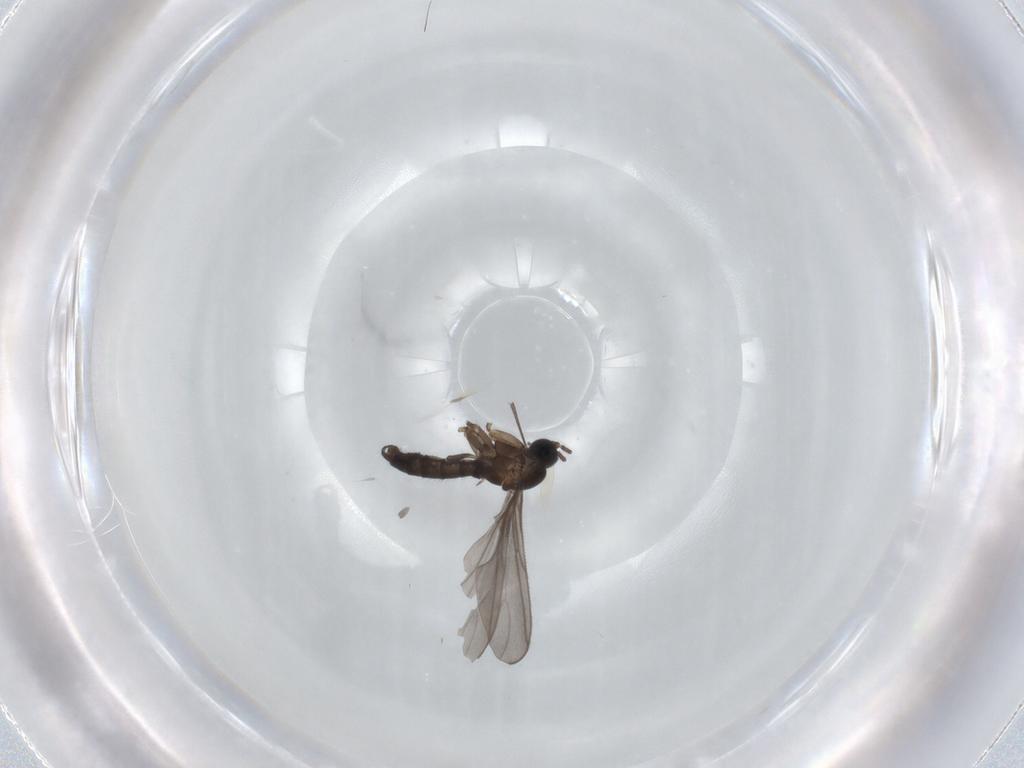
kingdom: Animalia
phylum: Arthropoda
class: Insecta
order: Diptera
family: Sciaridae
